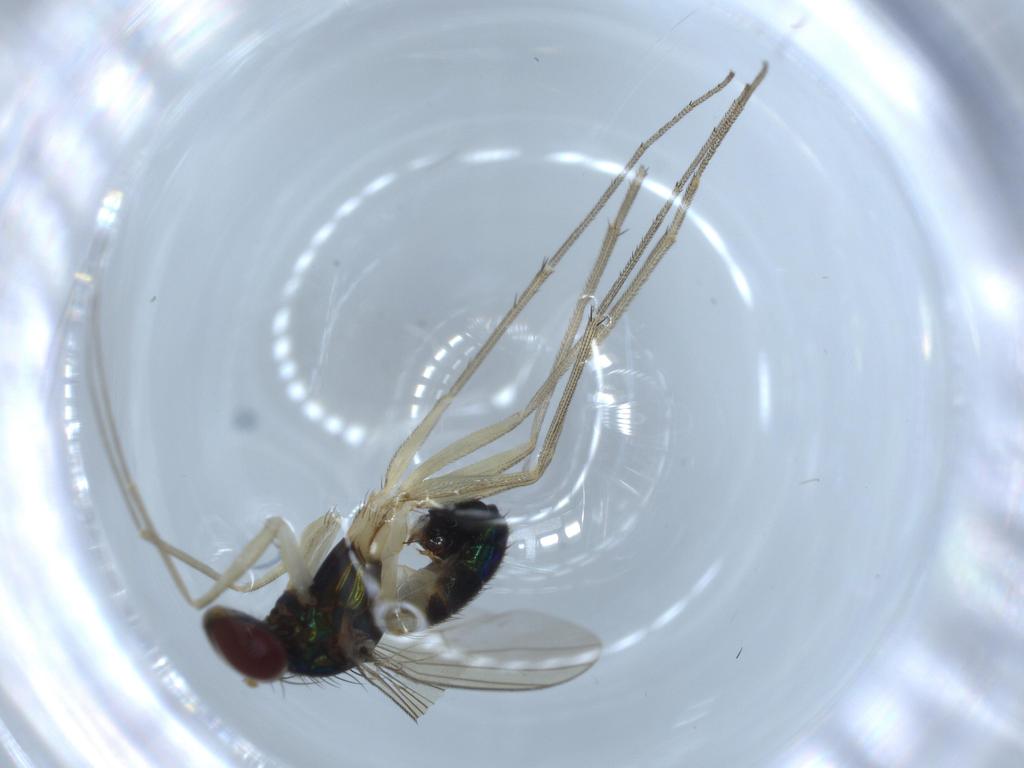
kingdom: Animalia
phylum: Arthropoda
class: Insecta
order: Diptera
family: Dolichopodidae
